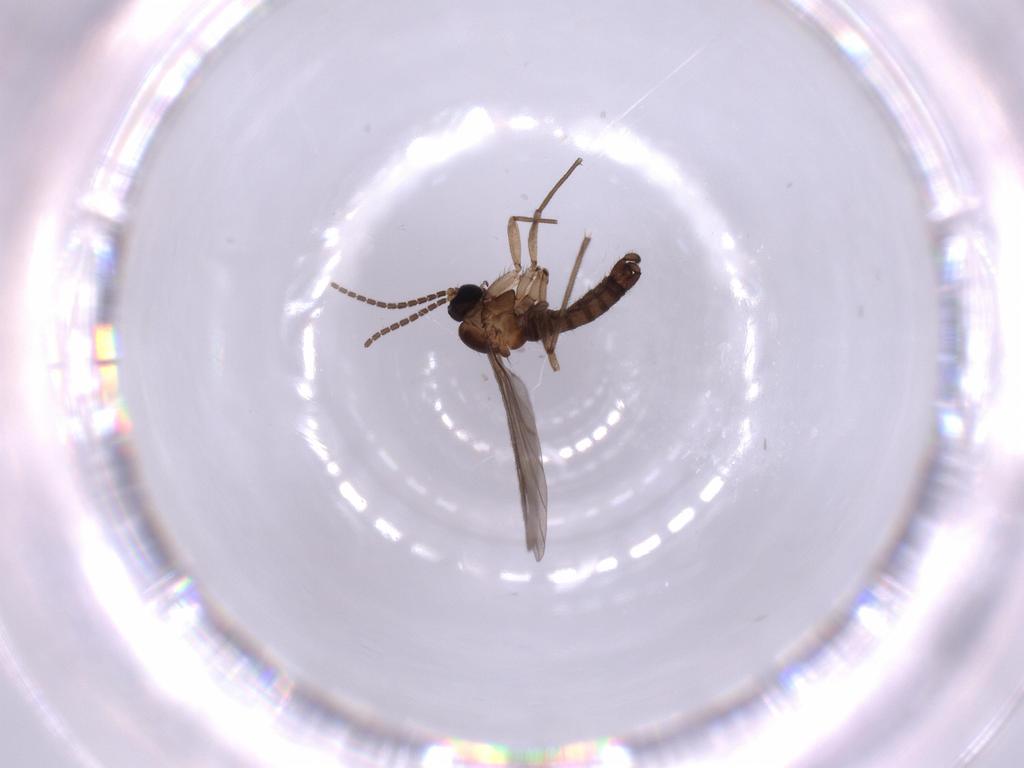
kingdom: Animalia
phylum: Arthropoda
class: Insecta
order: Diptera
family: Sciaridae
